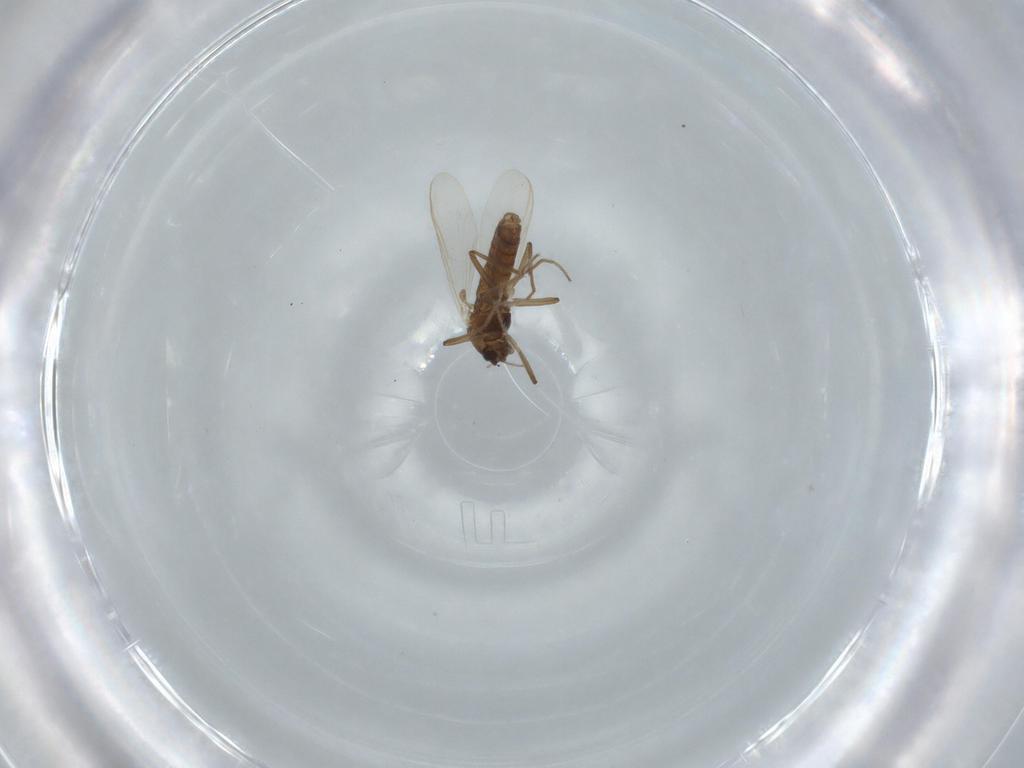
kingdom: Animalia
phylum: Arthropoda
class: Insecta
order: Diptera
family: Chironomidae
